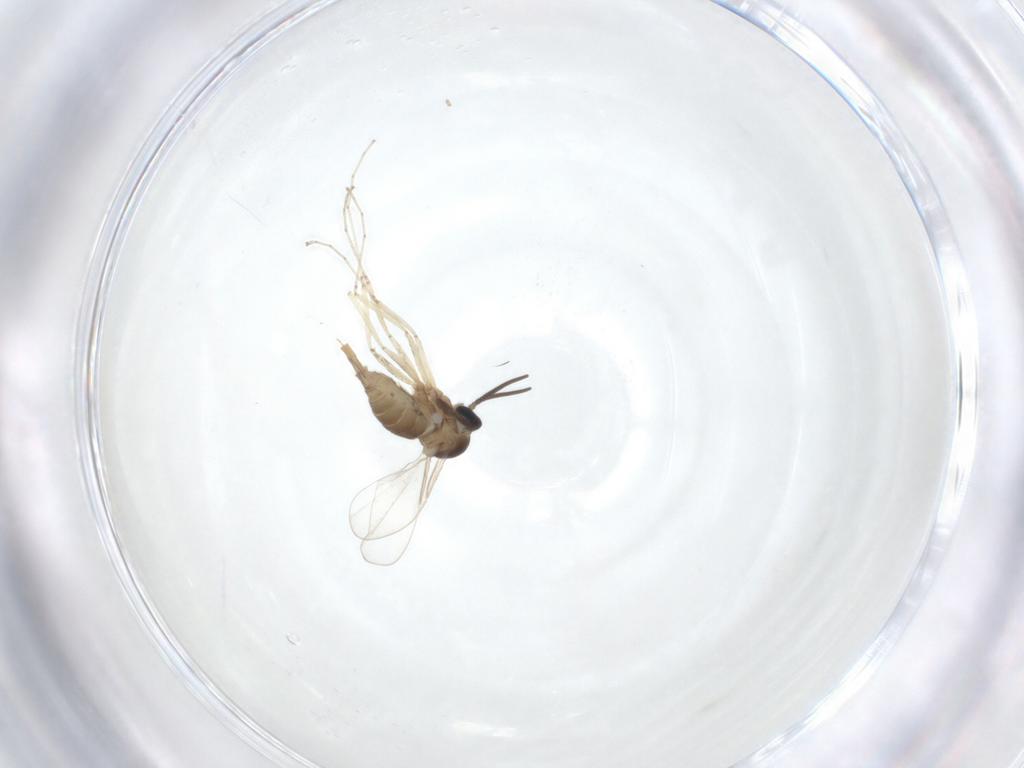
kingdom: Animalia
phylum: Arthropoda
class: Insecta
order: Diptera
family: Cecidomyiidae
